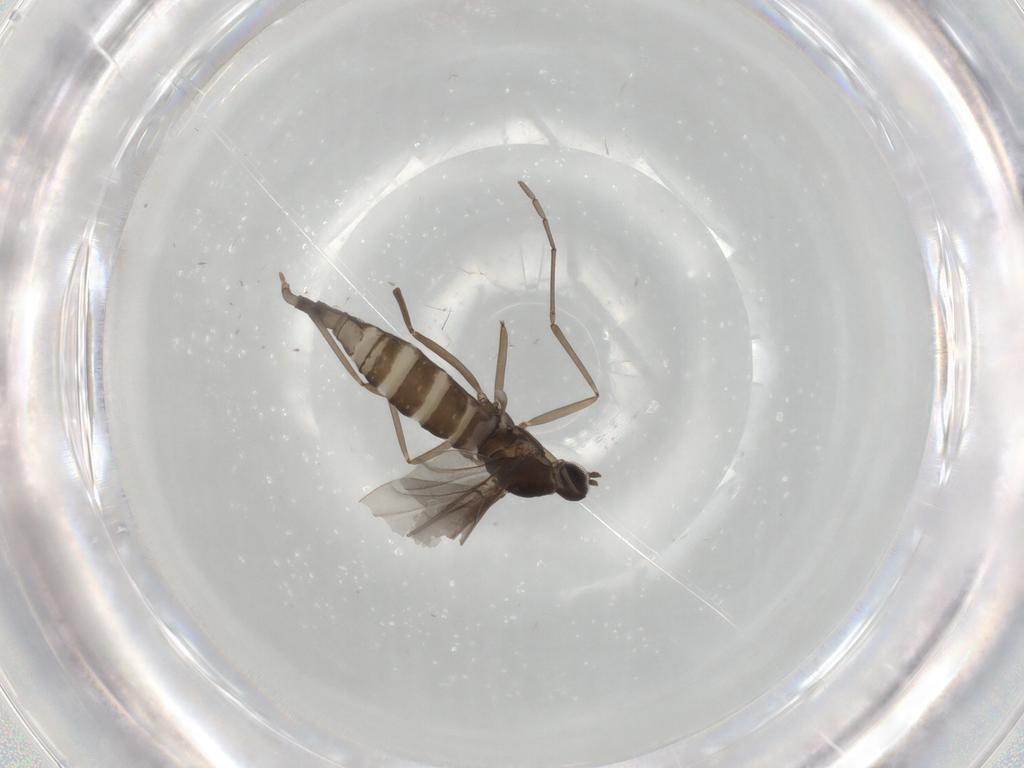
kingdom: Animalia
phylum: Arthropoda
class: Insecta
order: Diptera
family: Cecidomyiidae
